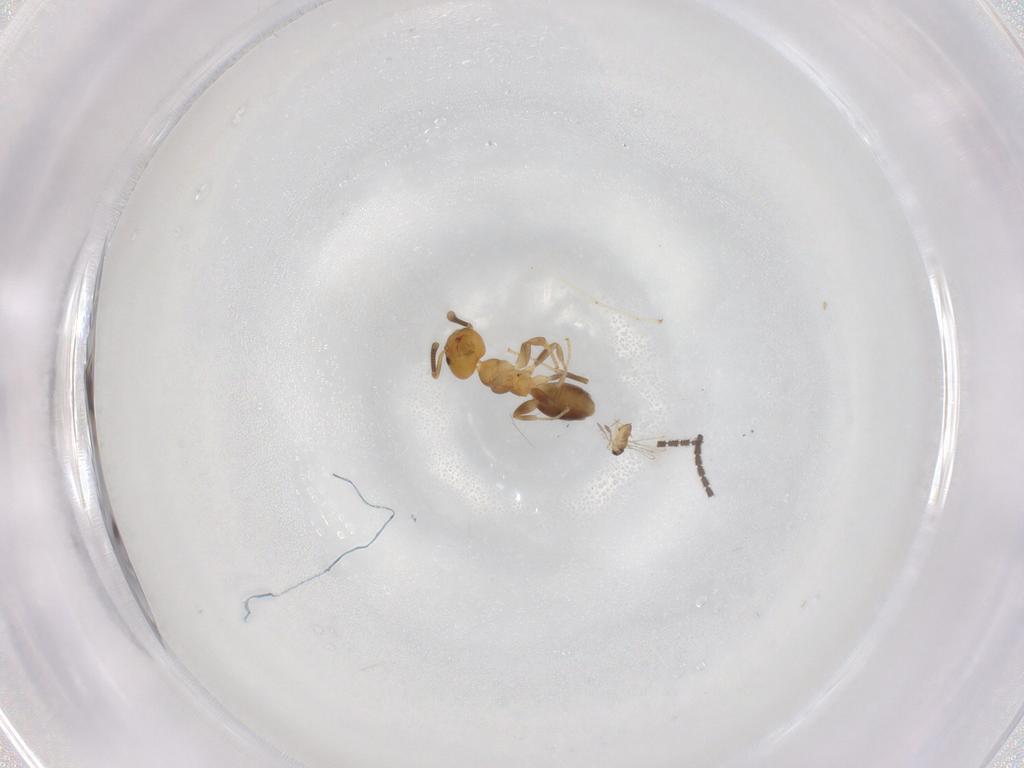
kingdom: Animalia
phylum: Arthropoda
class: Insecta
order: Hymenoptera
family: Formicidae
